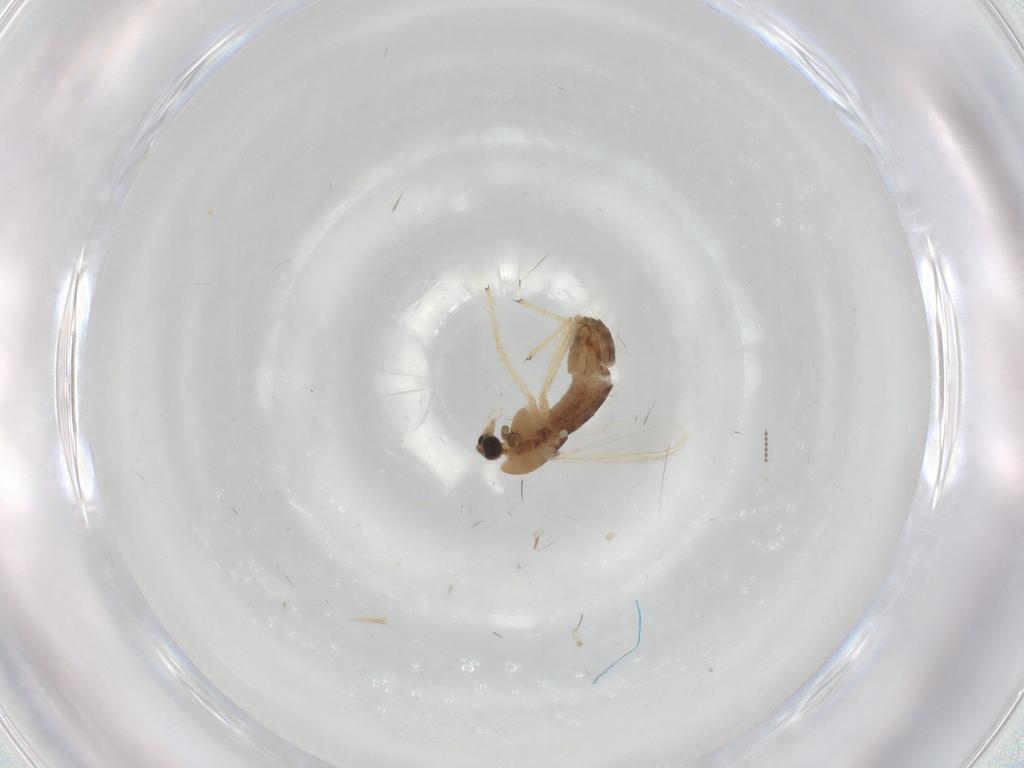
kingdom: Animalia
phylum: Arthropoda
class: Insecta
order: Diptera
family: Chironomidae
